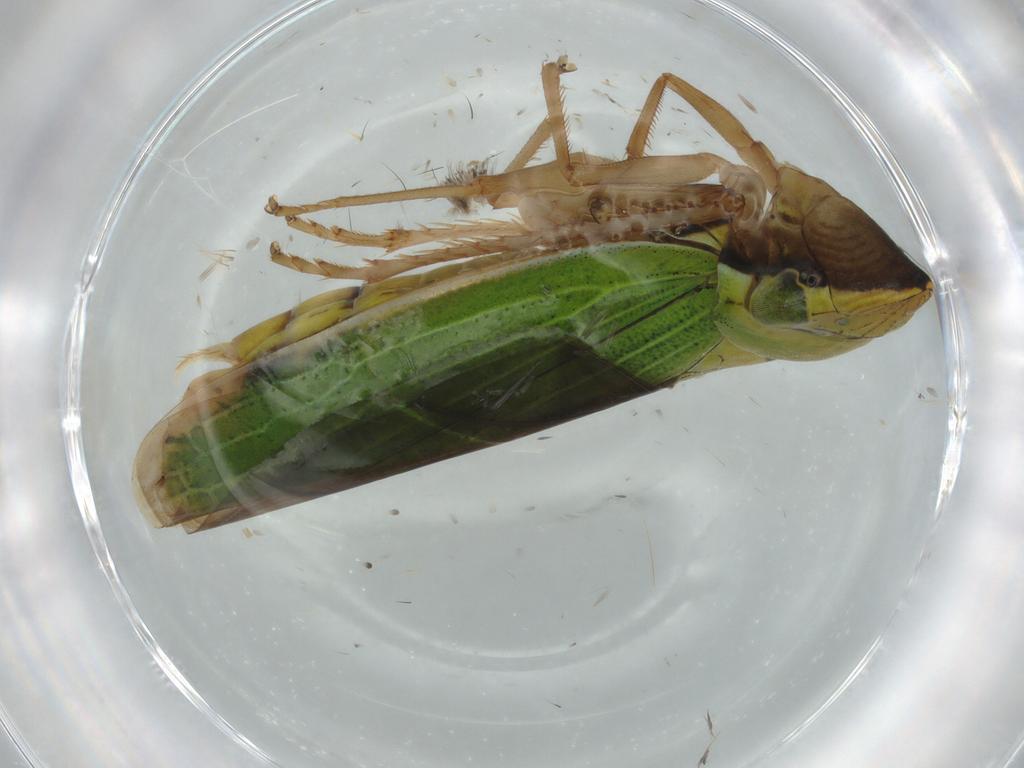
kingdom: Animalia
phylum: Arthropoda
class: Insecta
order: Hemiptera
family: Cicadellidae
